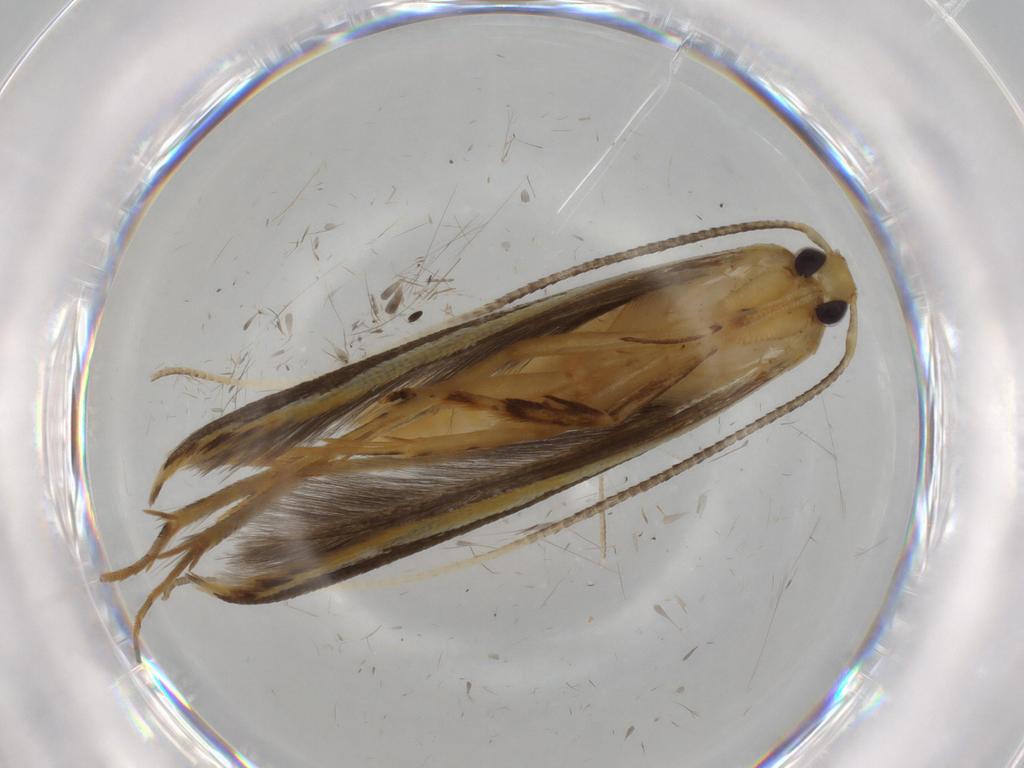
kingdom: Animalia
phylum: Arthropoda
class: Insecta
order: Lepidoptera
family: Pterolonchidae
